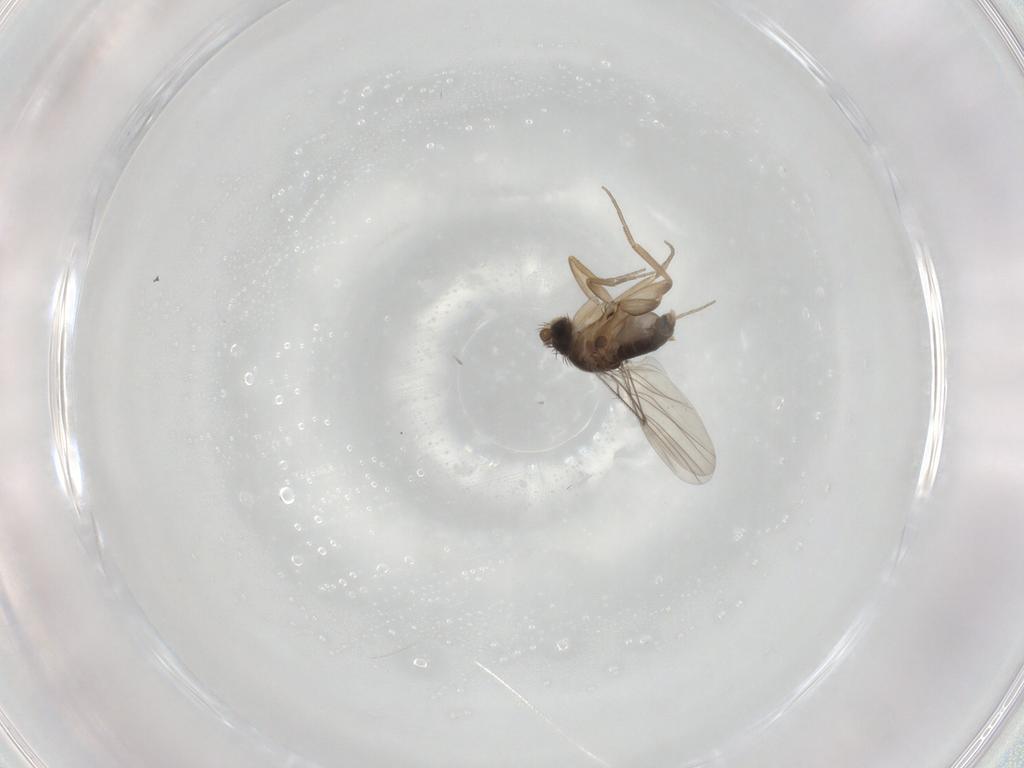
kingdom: Animalia
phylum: Arthropoda
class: Insecta
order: Diptera
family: Phoridae
